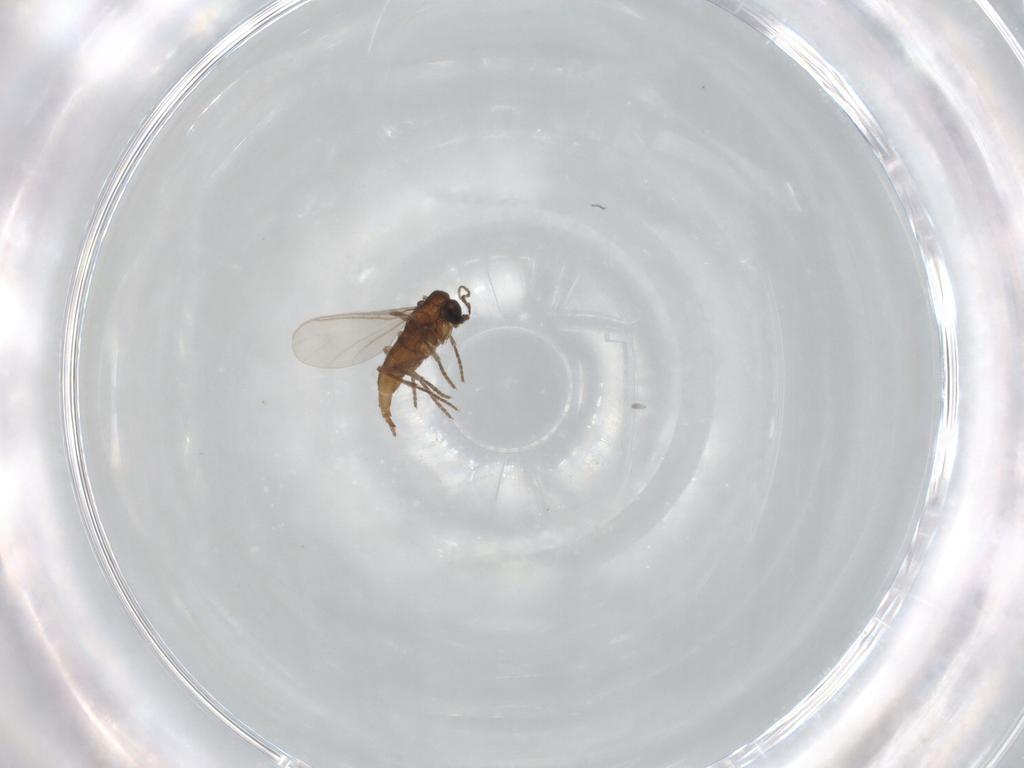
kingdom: Animalia
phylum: Arthropoda
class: Insecta
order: Diptera
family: Sciaridae
